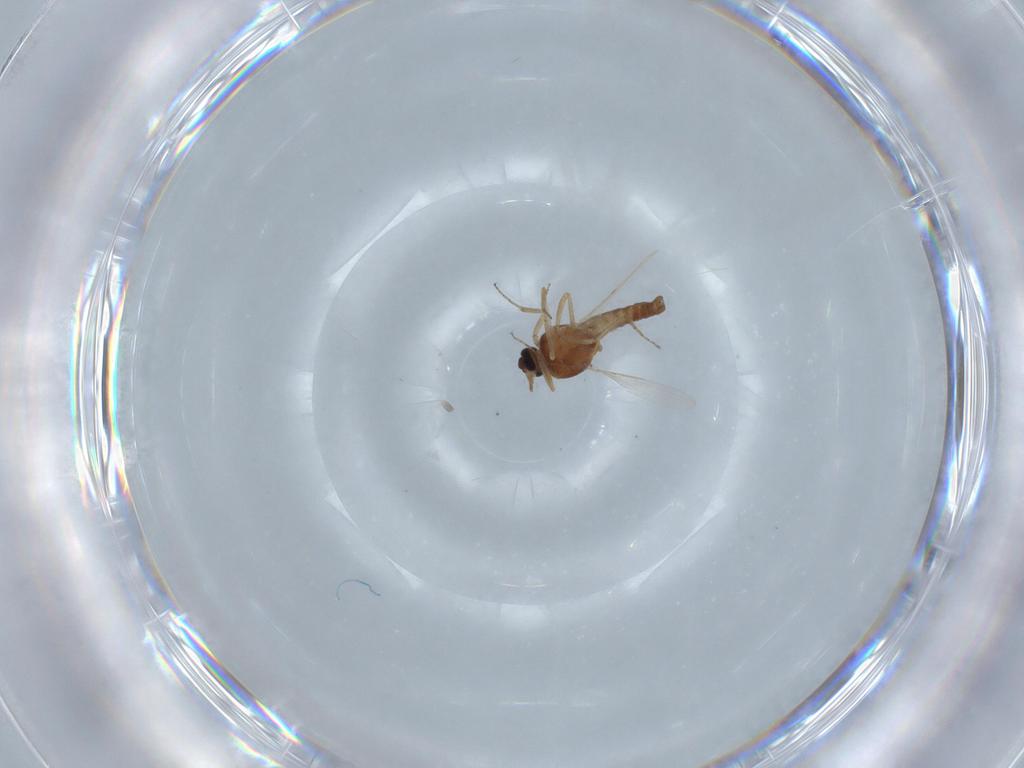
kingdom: Animalia
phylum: Arthropoda
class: Insecta
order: Diptera
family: Ceratopogonidae
